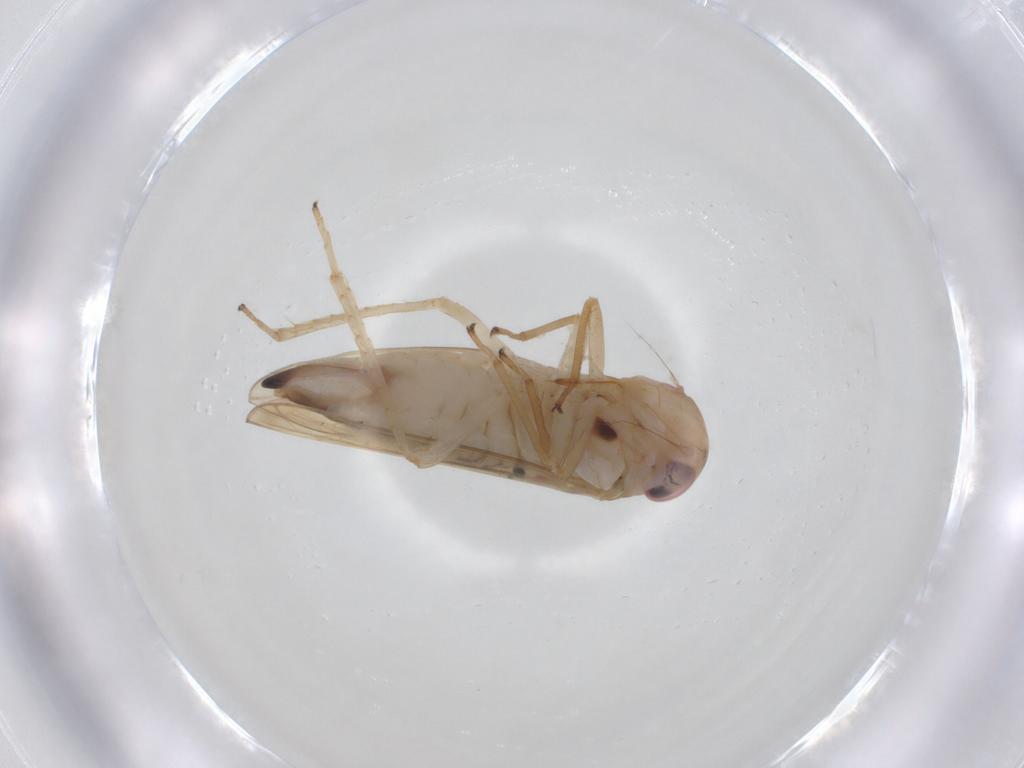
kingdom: Animalia
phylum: Arthropoda
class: Insecta
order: Hemiptera
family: Cicadellidae
